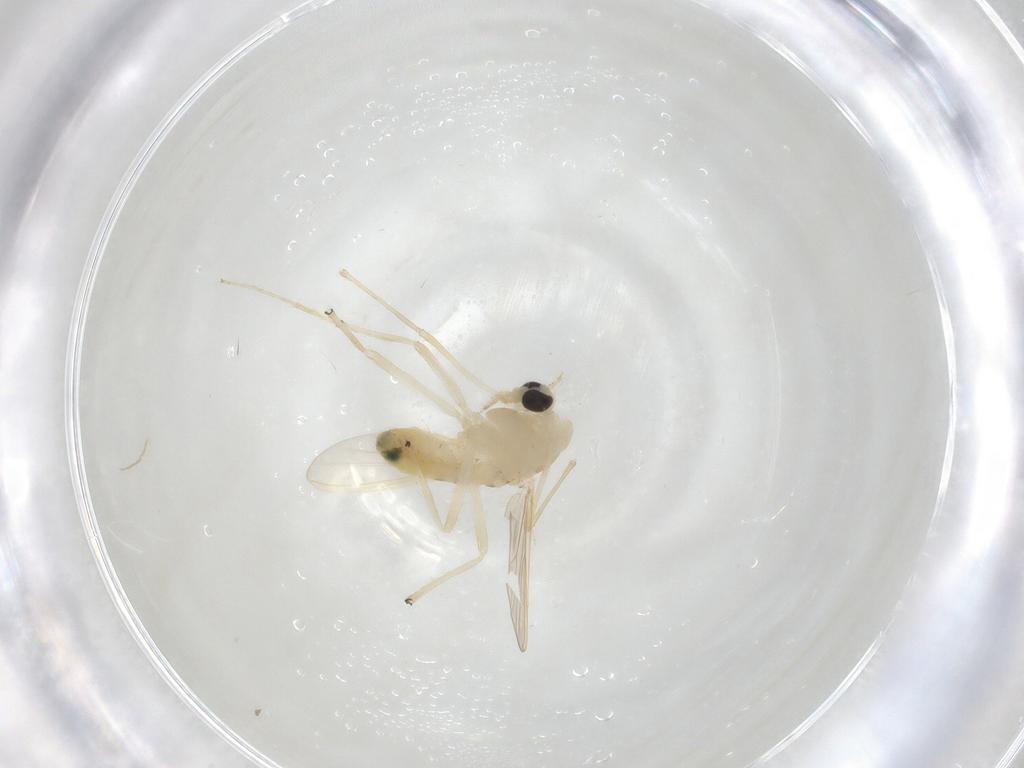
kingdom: Animalia
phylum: Arthropoda
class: Insecta
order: Diptera
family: Chironomidae
